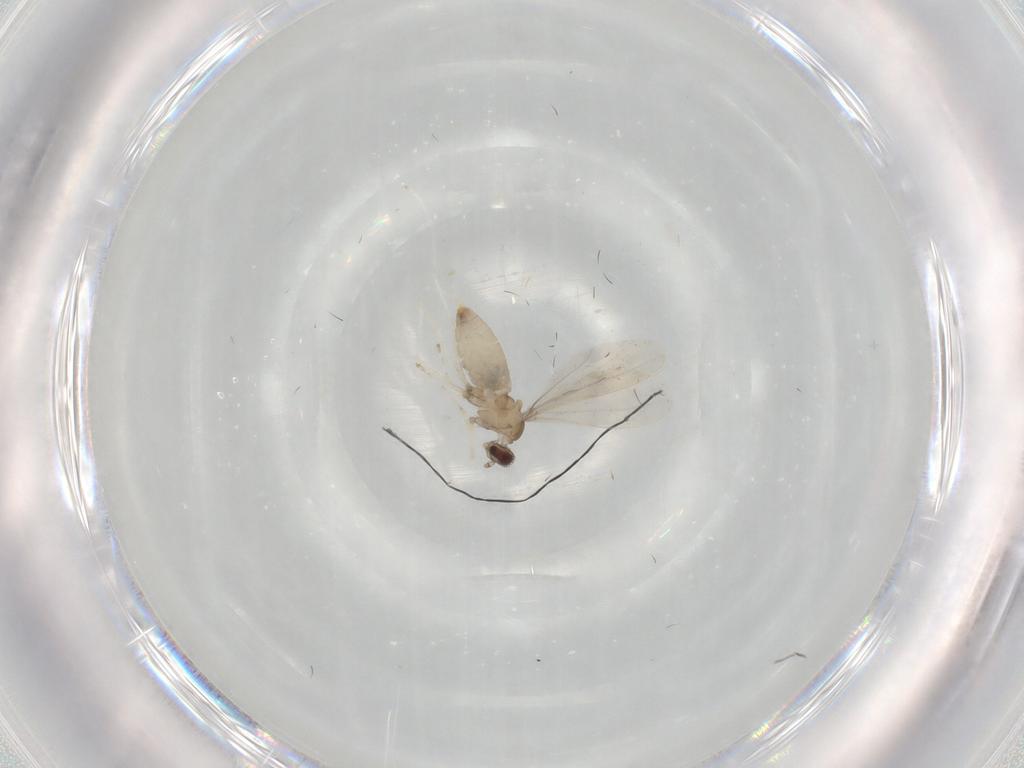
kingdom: Animalia
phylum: Arthropoda
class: Insecta
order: Diptera
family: Cecidomyiidae
